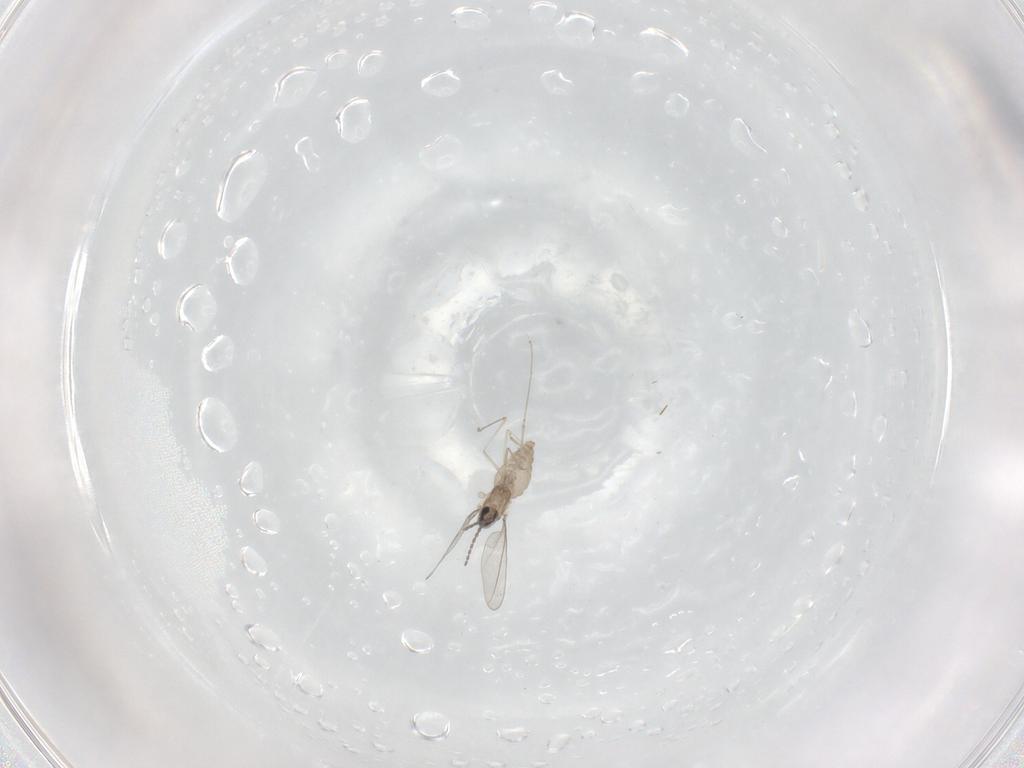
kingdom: Animalia
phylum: Arthropoda
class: Insecta
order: Diptera
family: Cecidomyiidae
